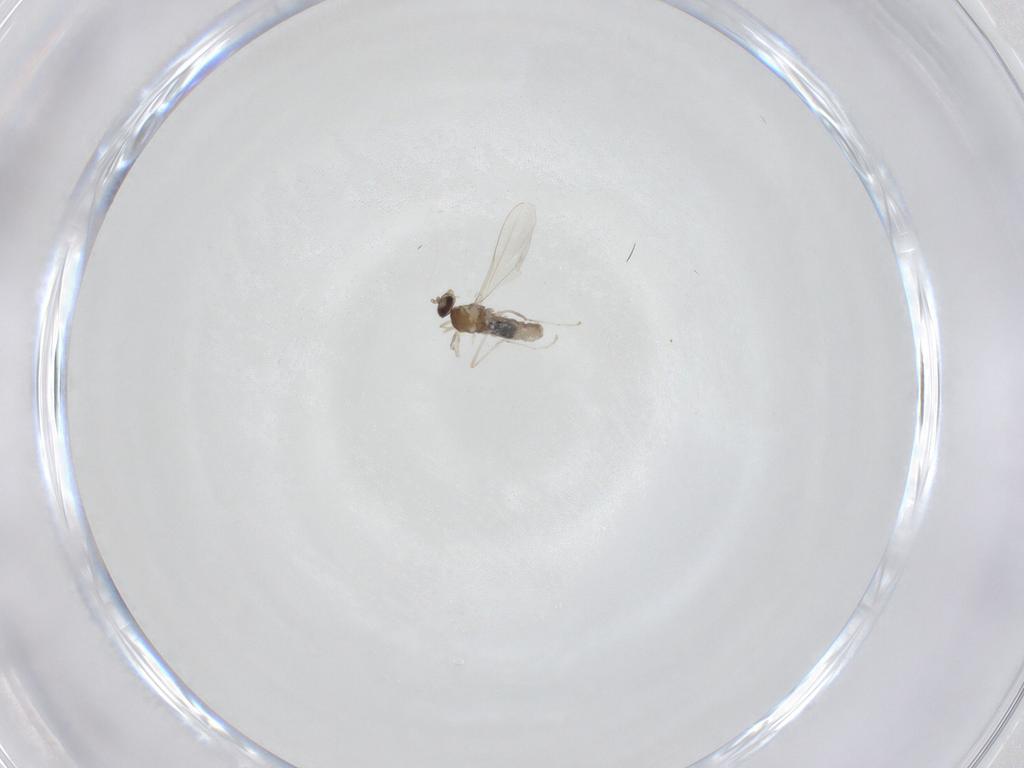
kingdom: Animalia
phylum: Arthropoda
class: Insecta
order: Diptera
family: Cecidomyiidae
